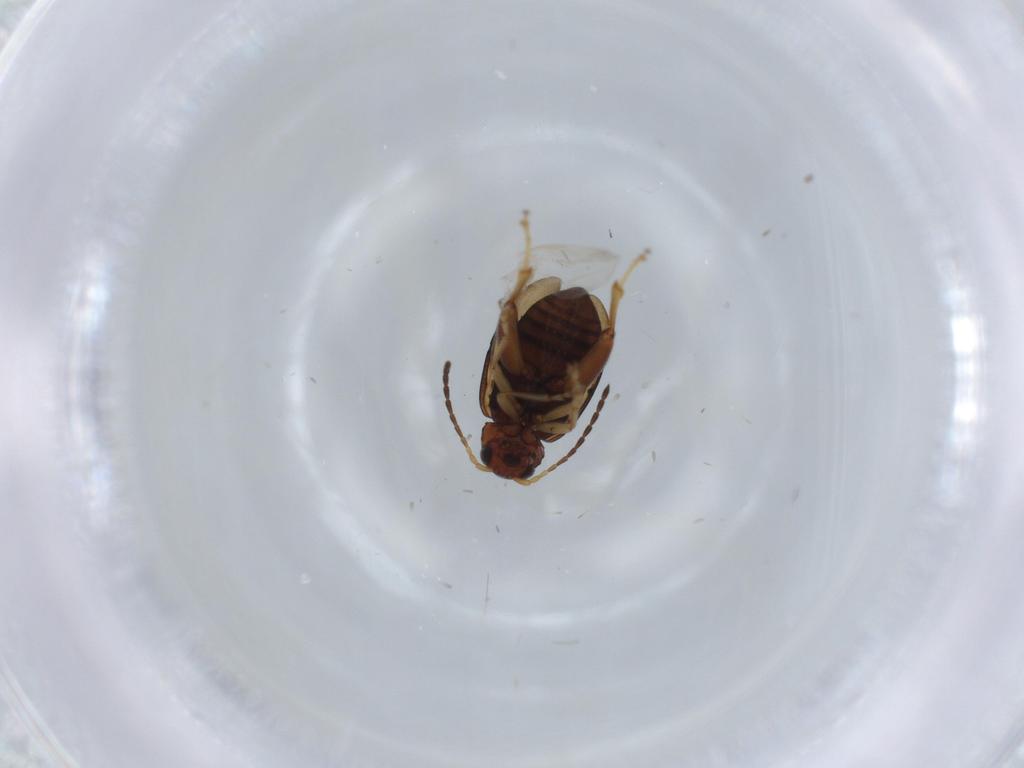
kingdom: Animalia
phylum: Arthropoda
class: Insecta
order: Coleoptera
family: Chrysomelidae
